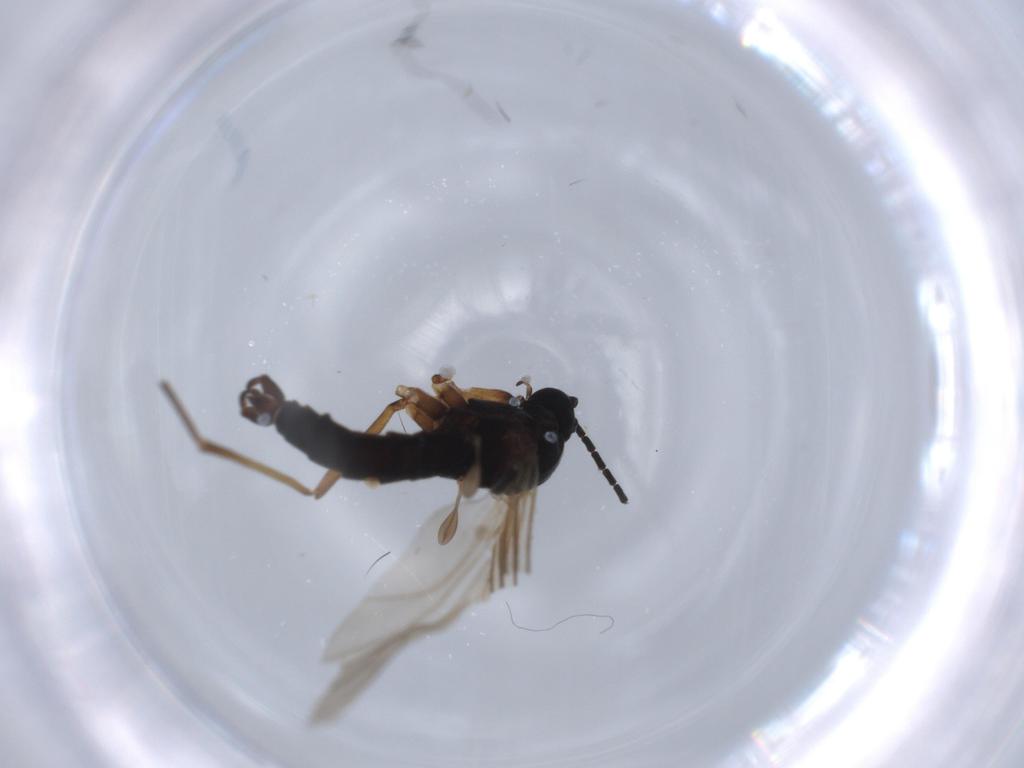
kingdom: Animalia
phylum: Arthropoda
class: Insecta
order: Diptera
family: Sciaridae
